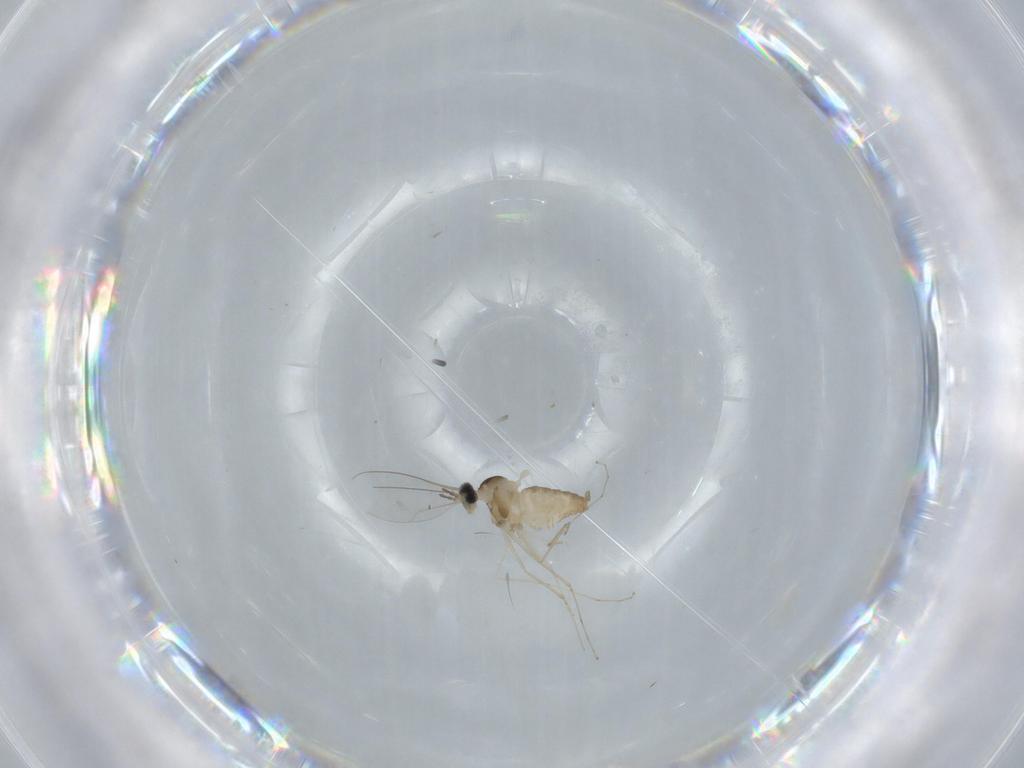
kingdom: Animalia
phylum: Arthropoda
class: Insecta
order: Diptera
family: Cecidomyiidae
